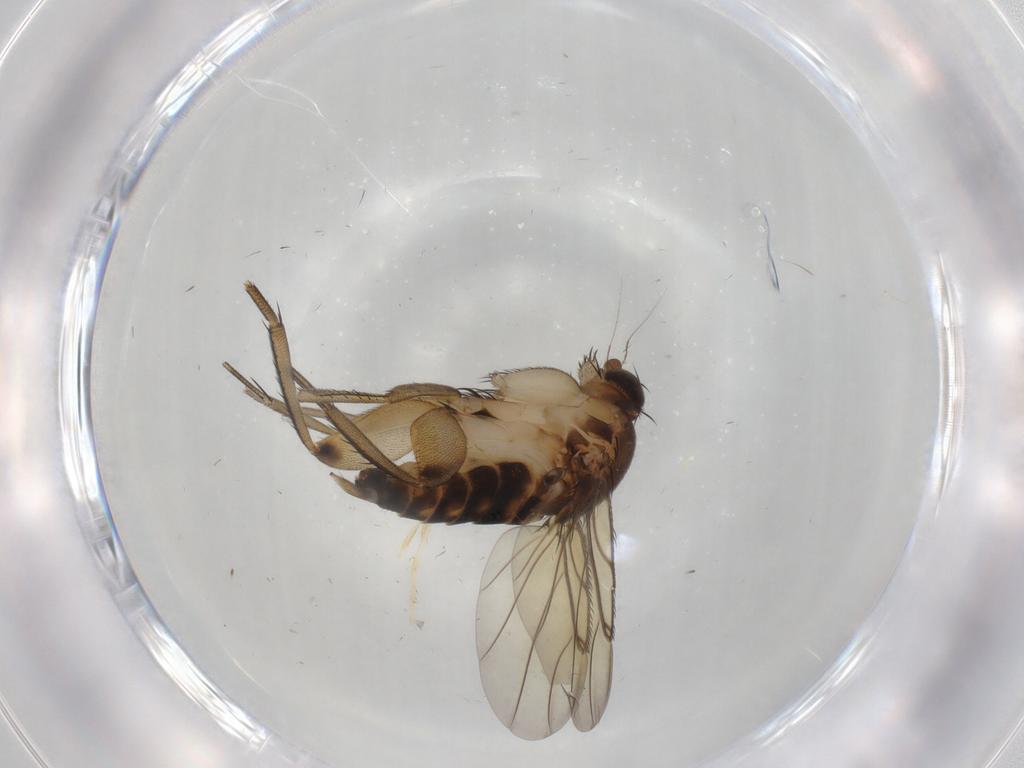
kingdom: Animalia
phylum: Arthropoda
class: Insecta
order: Diptera
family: Phoridae
